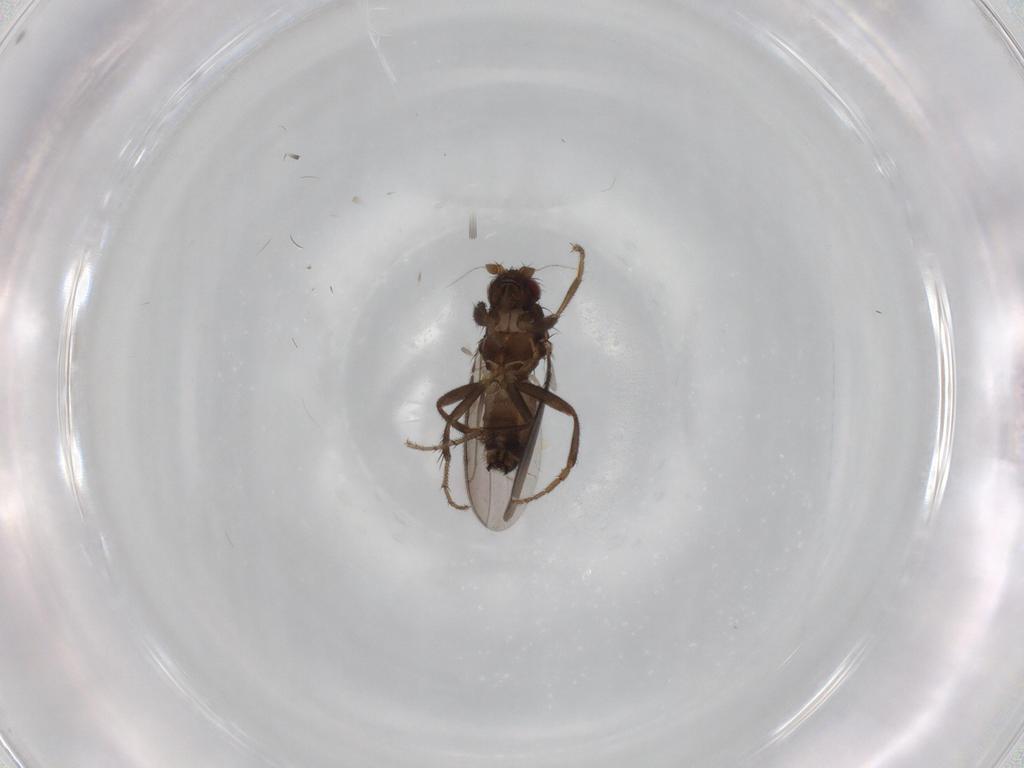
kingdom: Animalia
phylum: Arthropoda
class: Insecta
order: Diptera
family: Sphaeroceridae
